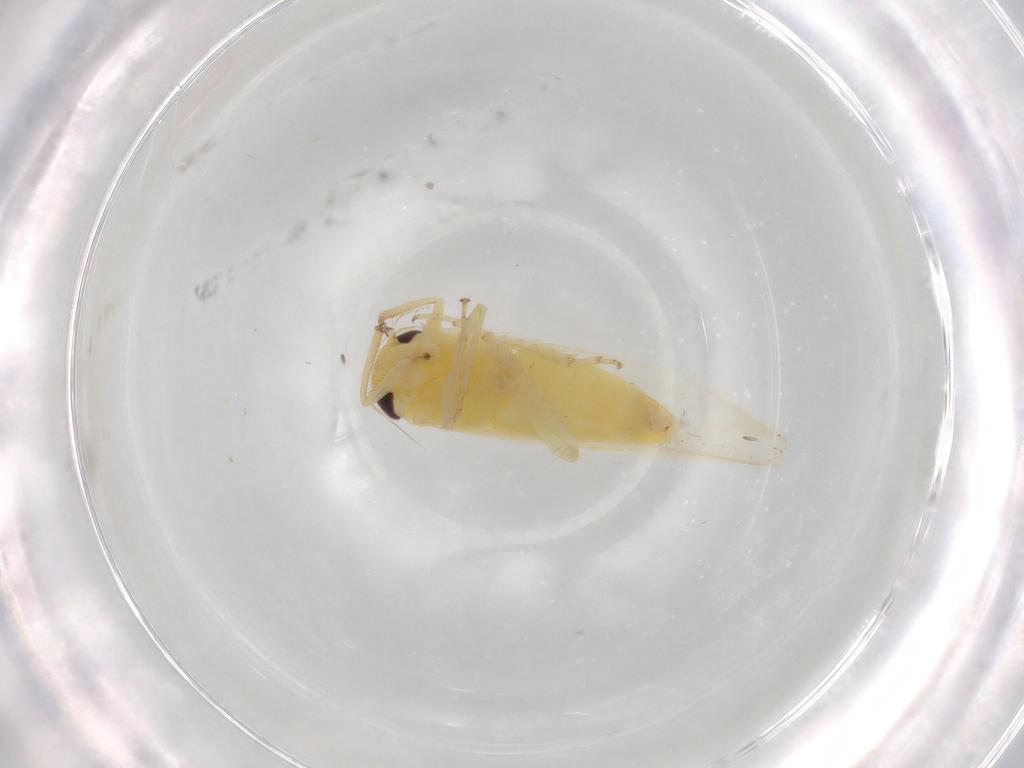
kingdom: Animalia
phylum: Arthropoda
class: Insecta
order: Hemiptera
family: Cicadellidae
